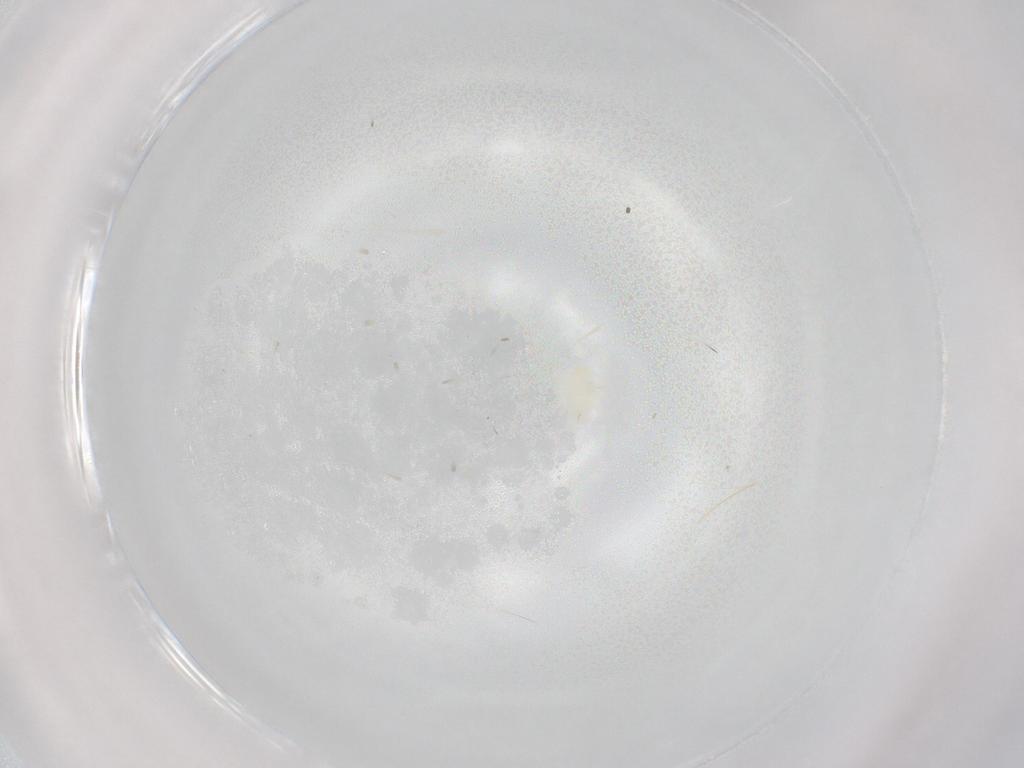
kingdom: Animalia
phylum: Arthropoda
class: Arachnida
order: Mesostigmata
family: Melicharidae
